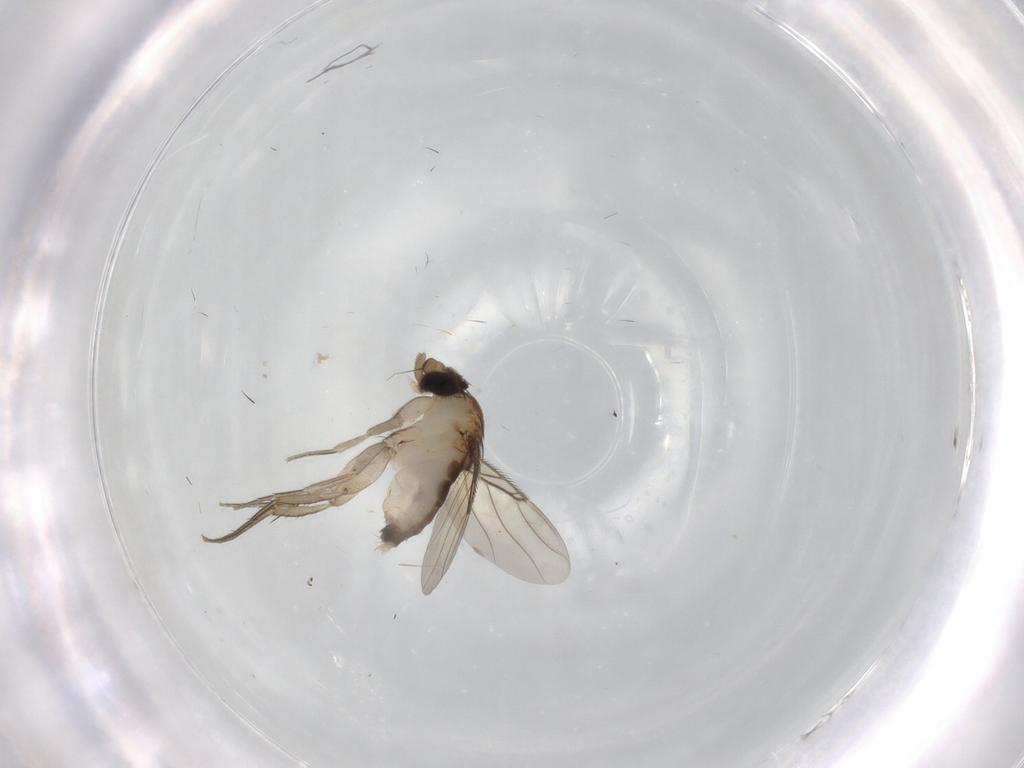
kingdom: Animalia
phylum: Arthropoda
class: Insecta
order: Diptera
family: Phoridae
